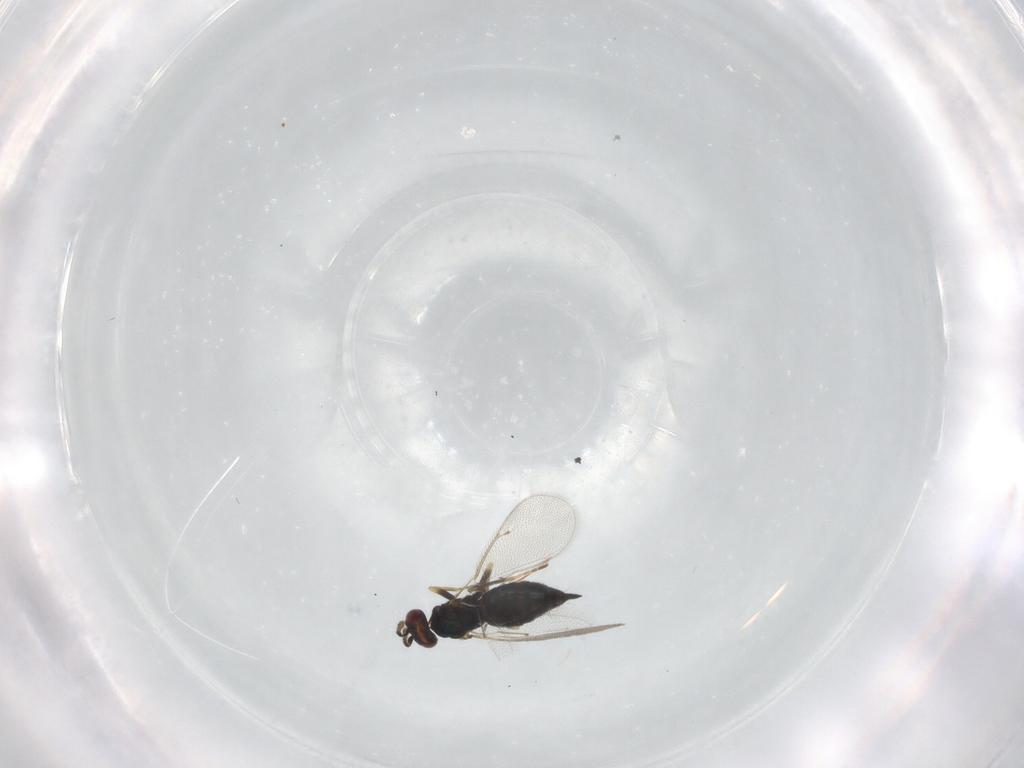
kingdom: Animalia
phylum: Arthropoda
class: Insecta
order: Hymenoptera
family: Eulophidae
